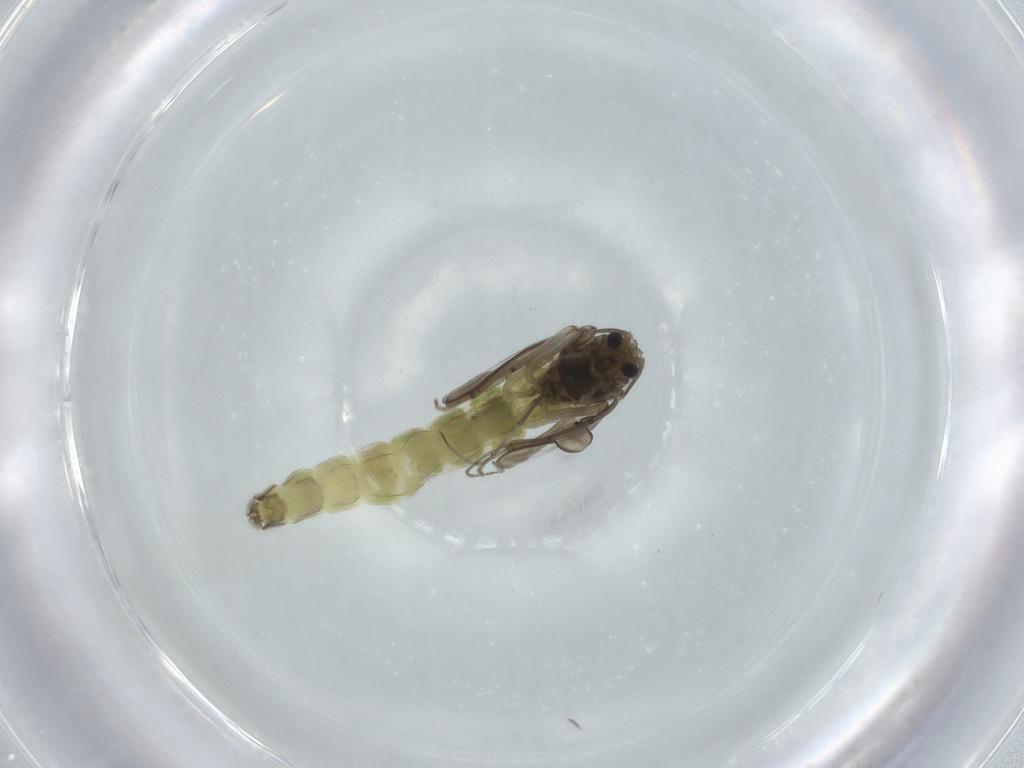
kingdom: Animalia
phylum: Arthropoda
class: Insecta
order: Diptera
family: Chironomidae
